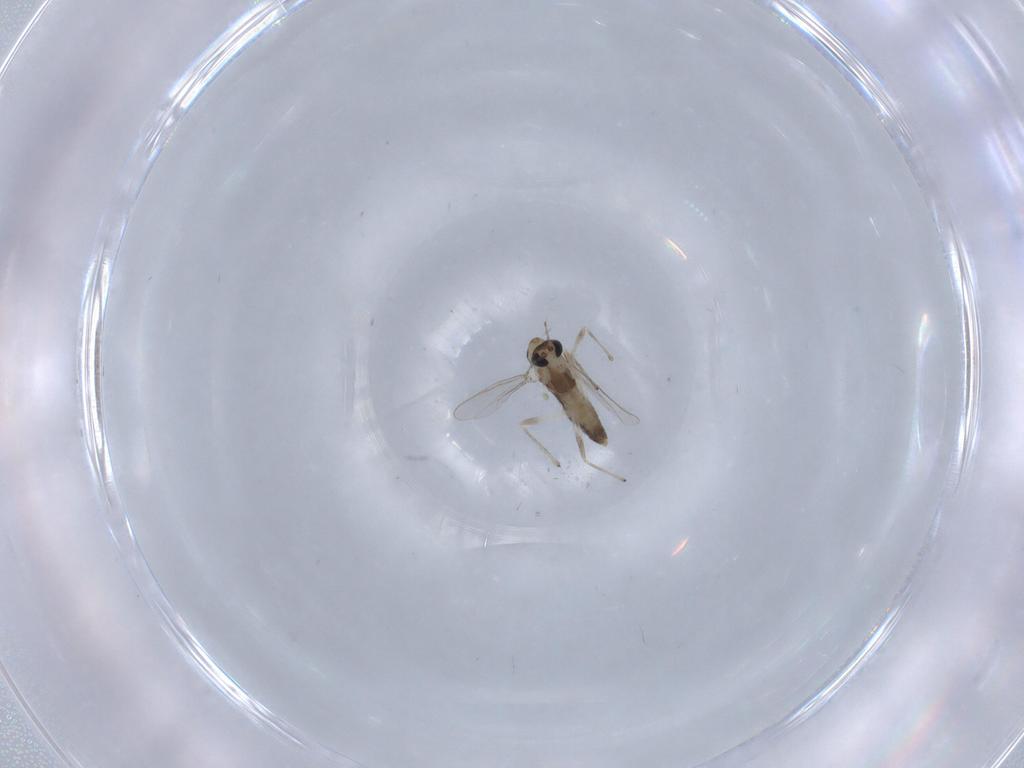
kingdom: Animalia
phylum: Arthropoda
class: Insecta
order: Diptera
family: Chironomidae
